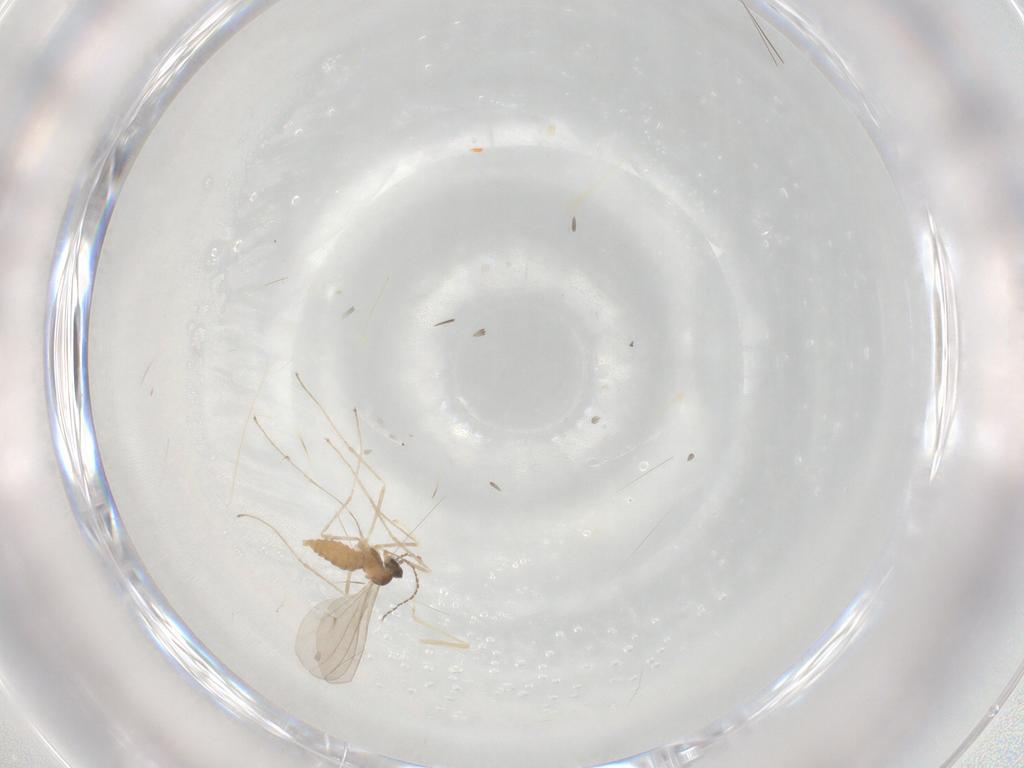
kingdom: Animalia
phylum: Arthropoda
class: Insecta
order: Diptera
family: Cecidomyiidae
